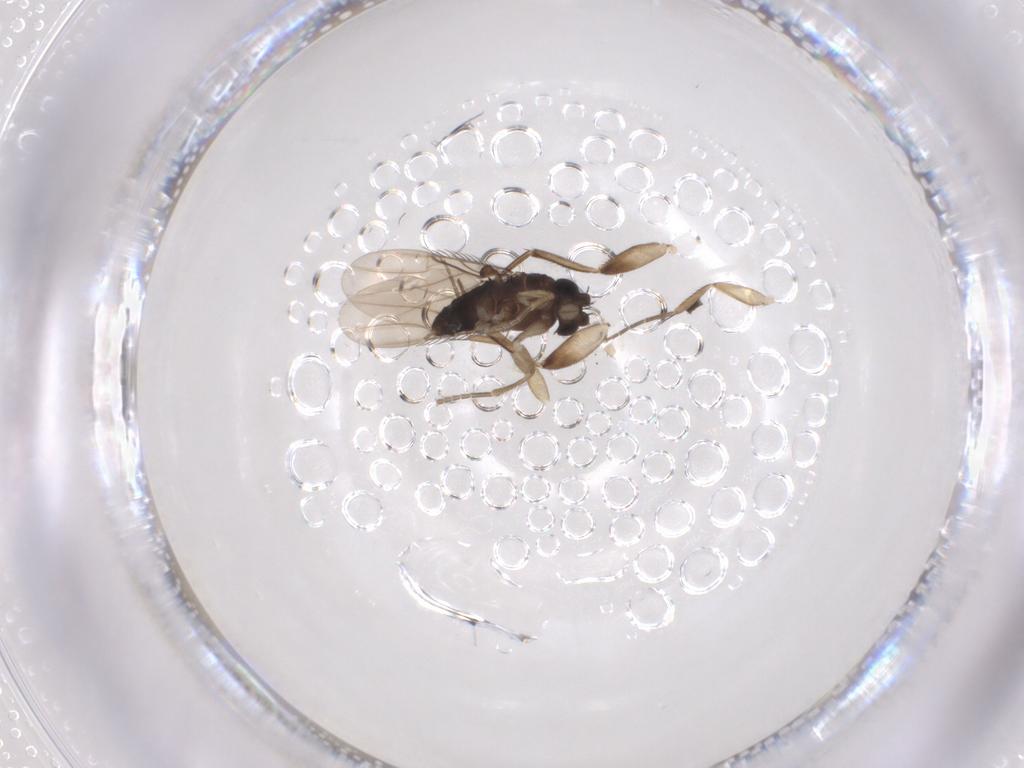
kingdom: Animalia
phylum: Arthropoda
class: Insecta
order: Diptera
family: Phoridae
